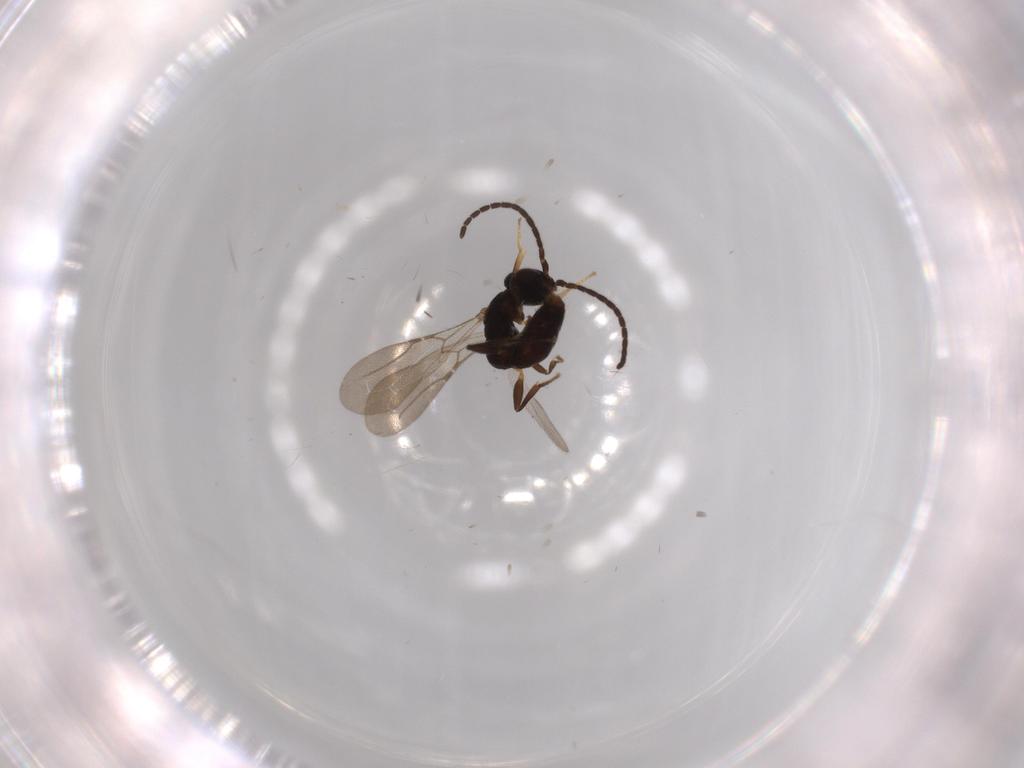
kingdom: Animalia
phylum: Arthropoda
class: Insecta
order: Hymenoptera
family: Bethylidae
